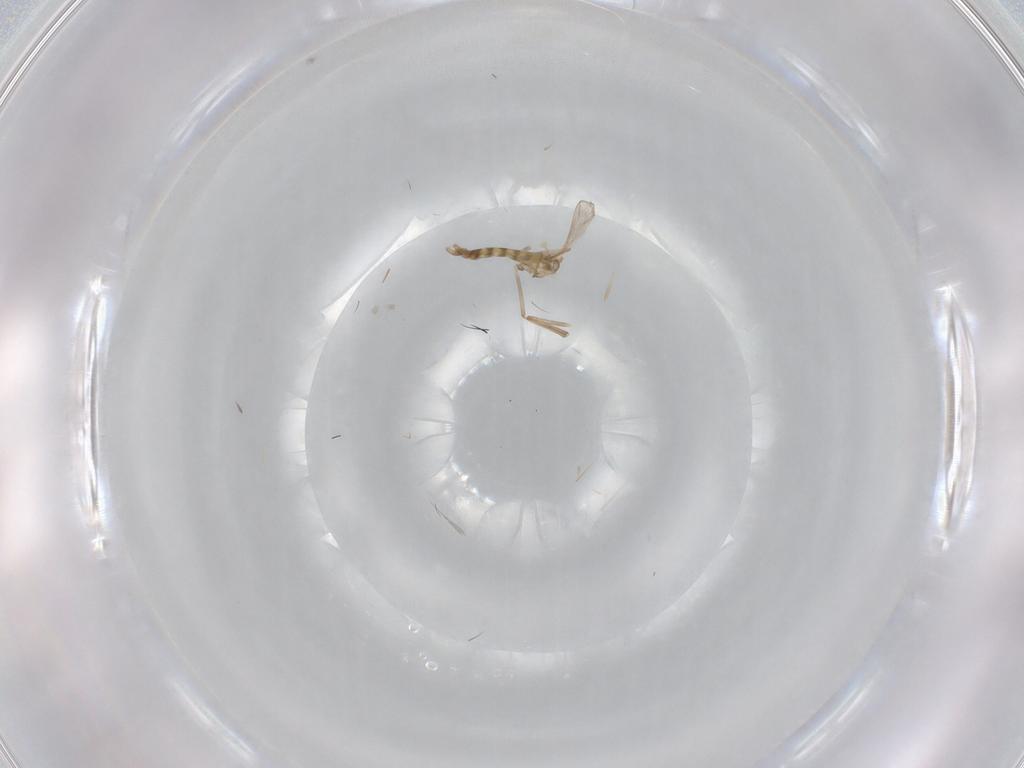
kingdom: Animalia
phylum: Arthropoda
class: Insecta
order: Diptera
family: Chironomidae
